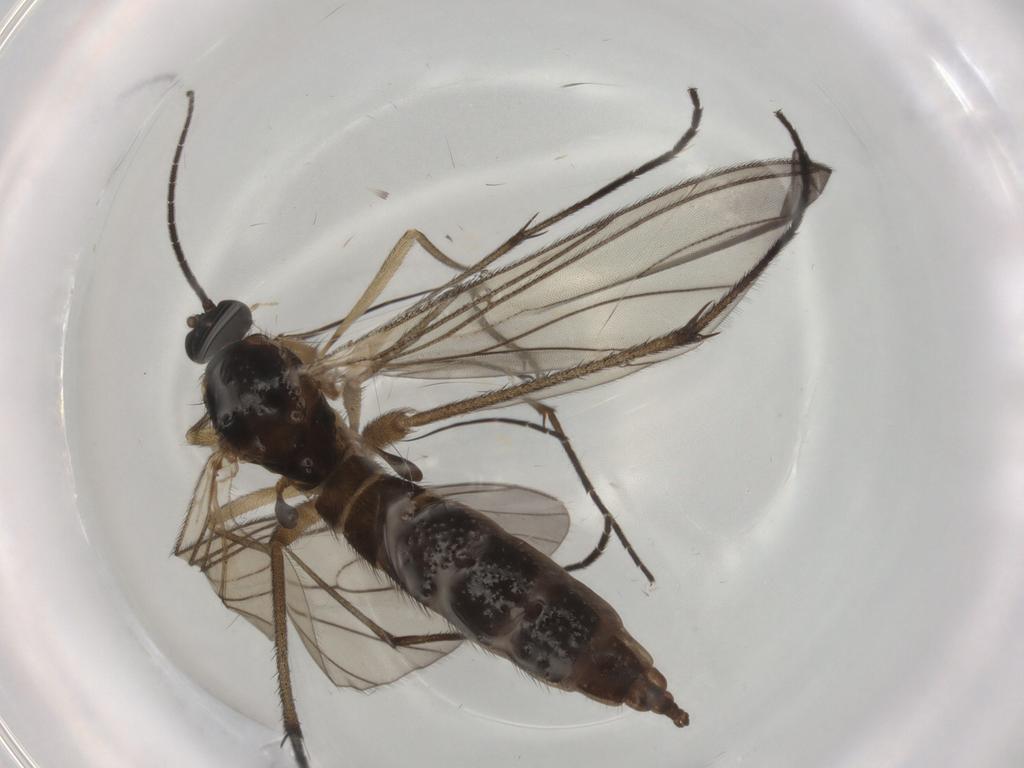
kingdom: Animalia
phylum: Arthropoda
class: Insecta
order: Diptera
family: Sciaridae
